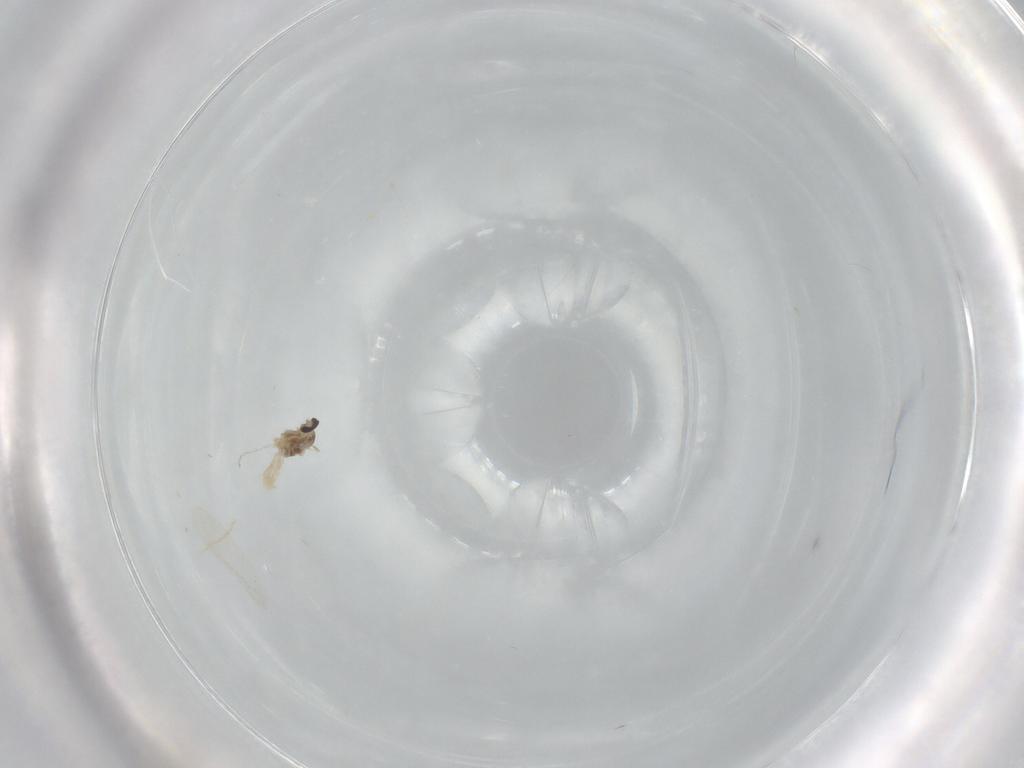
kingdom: Animalia
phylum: Arthropoda
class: Insecta
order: Diptera
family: Cecidomyiidae
